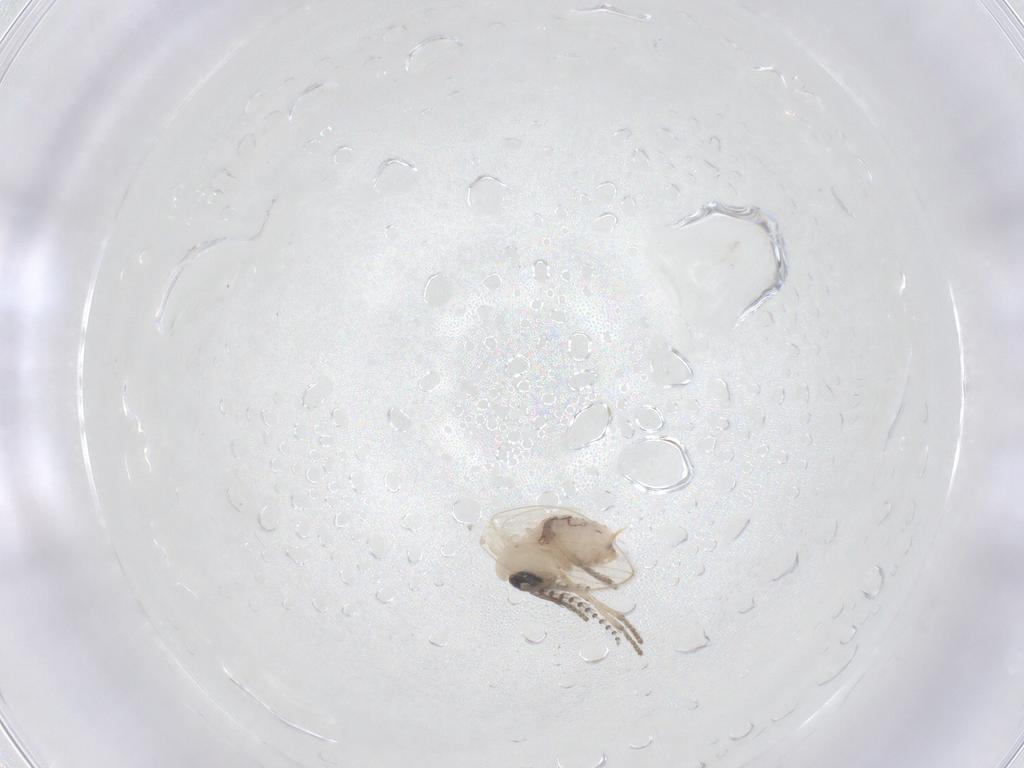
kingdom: Animalia
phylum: Arthropoda
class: Insecta
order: Diptera
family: Psychodidae
